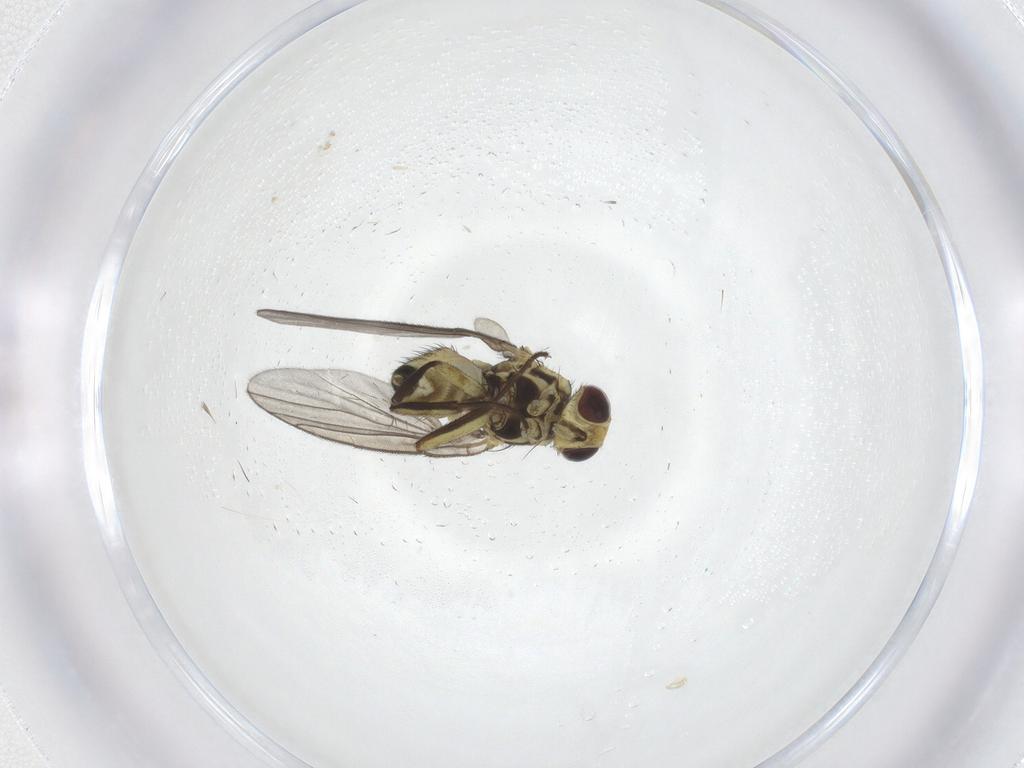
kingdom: Animalia
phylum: Arthropoda
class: Insecta
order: Diptera
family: Agromyzidae
